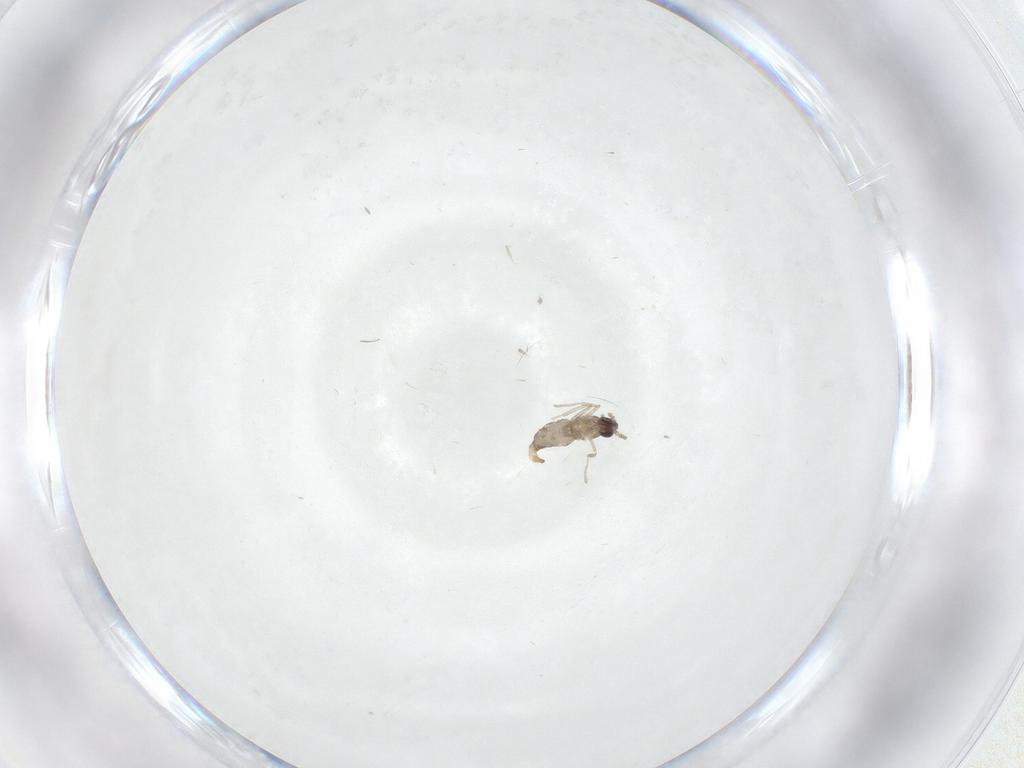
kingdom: Animalia
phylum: Arthropoda
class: Insecta
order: Diptera
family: Cecidomyiidae
